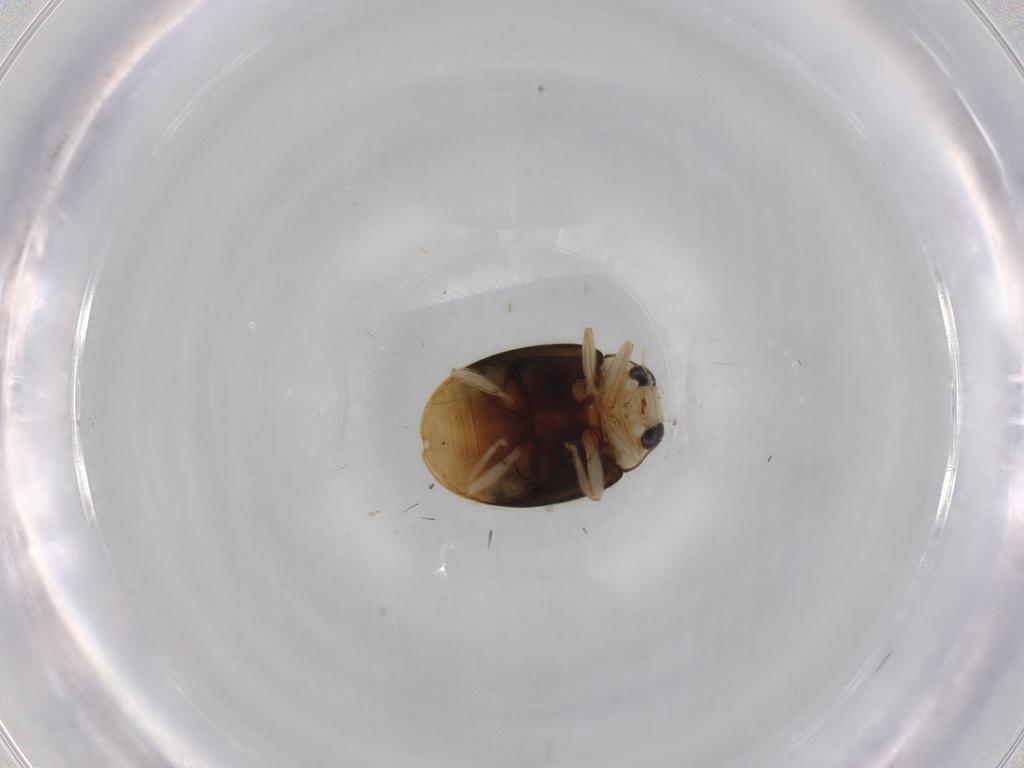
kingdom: Animalia
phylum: Arthropoda
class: Insecta
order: Coleoptera
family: Coccinellidae
